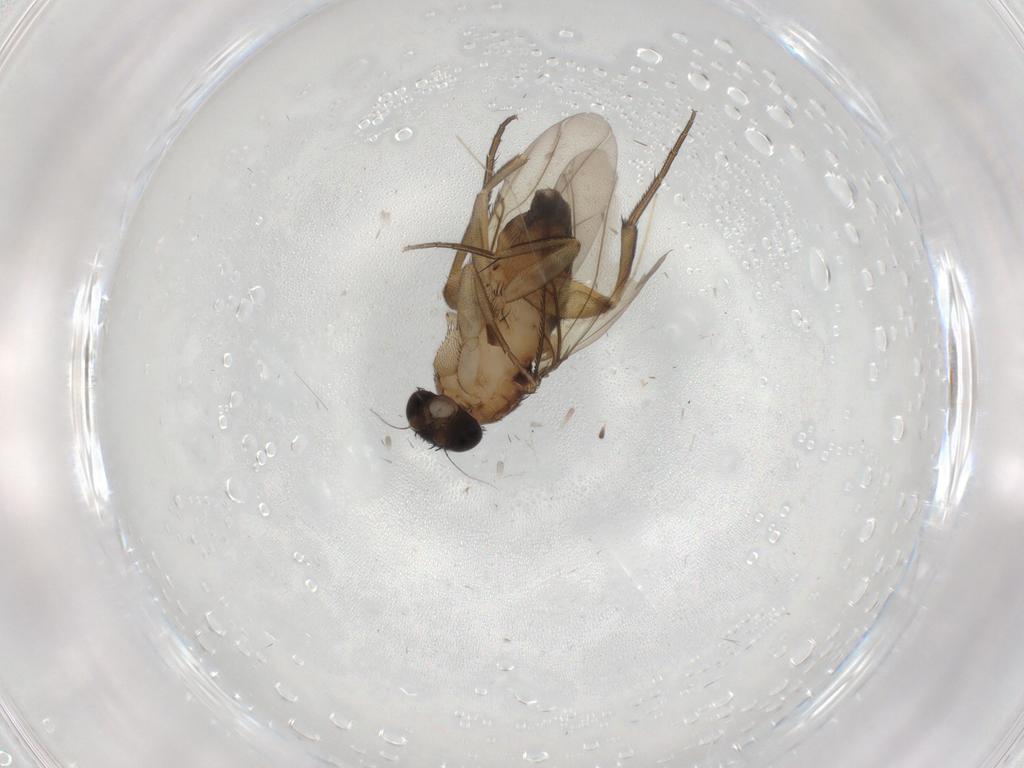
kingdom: Animalia
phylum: Arthropoda
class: Insecta
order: Diptera
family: Phoridae
